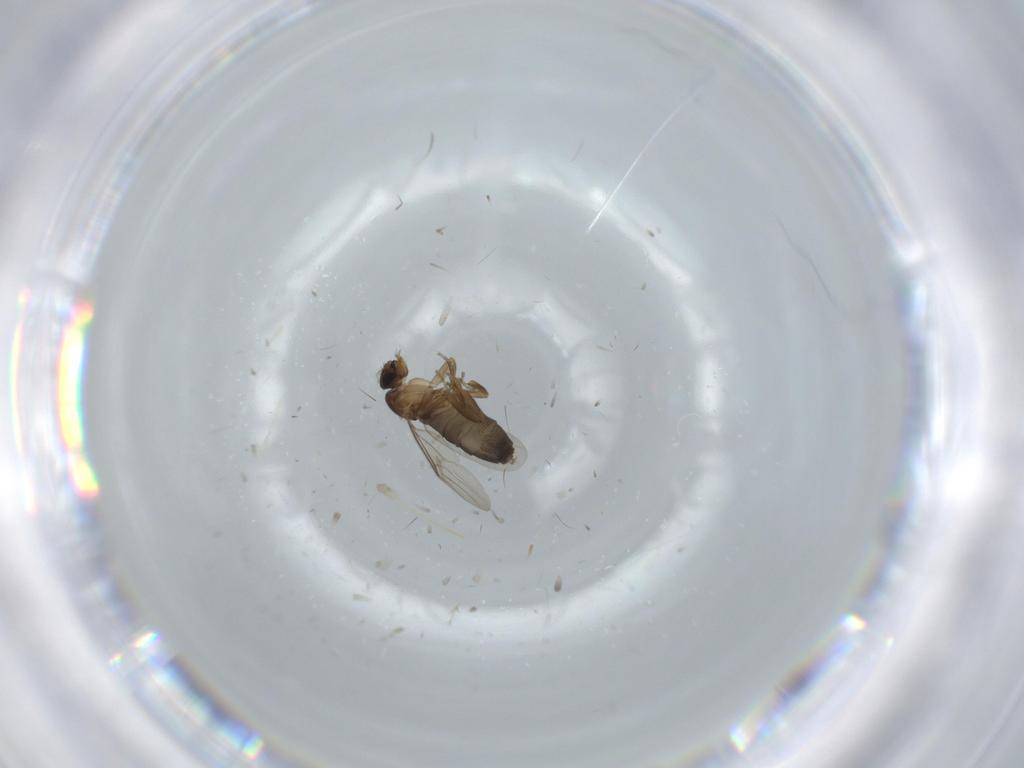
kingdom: Animalia
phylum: Arthropoda
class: Insecta
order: Diptera
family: Phoridae
